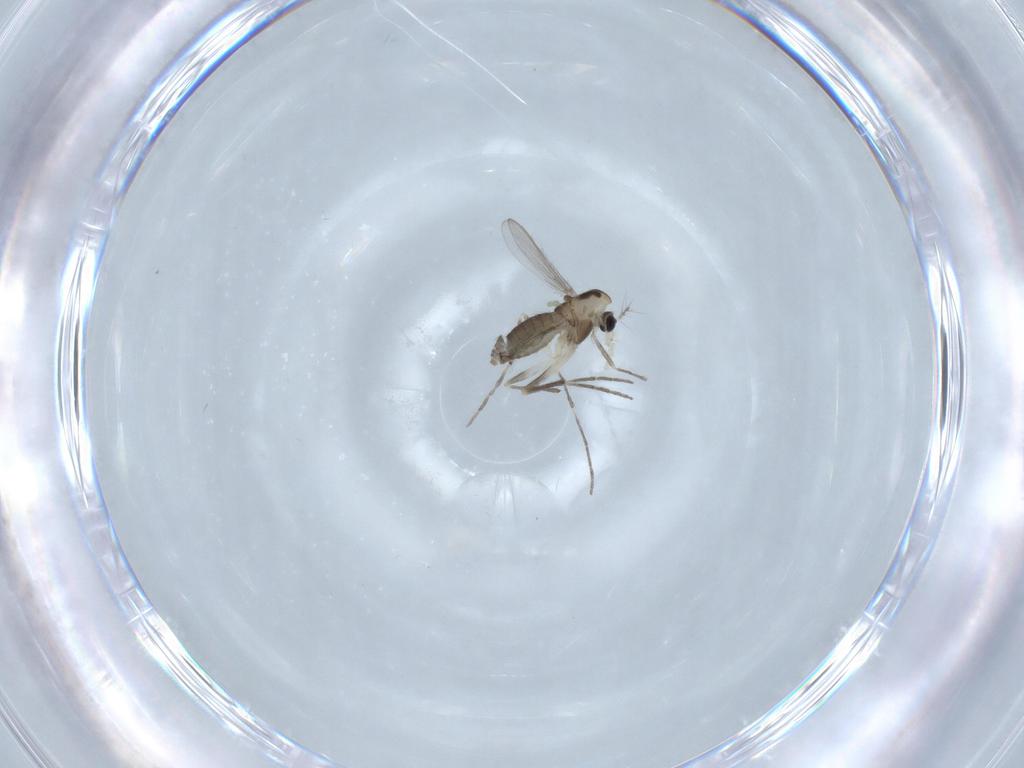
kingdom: Animalia
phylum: Arthropoda
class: Insecta
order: Diptera
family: Chironomidae
